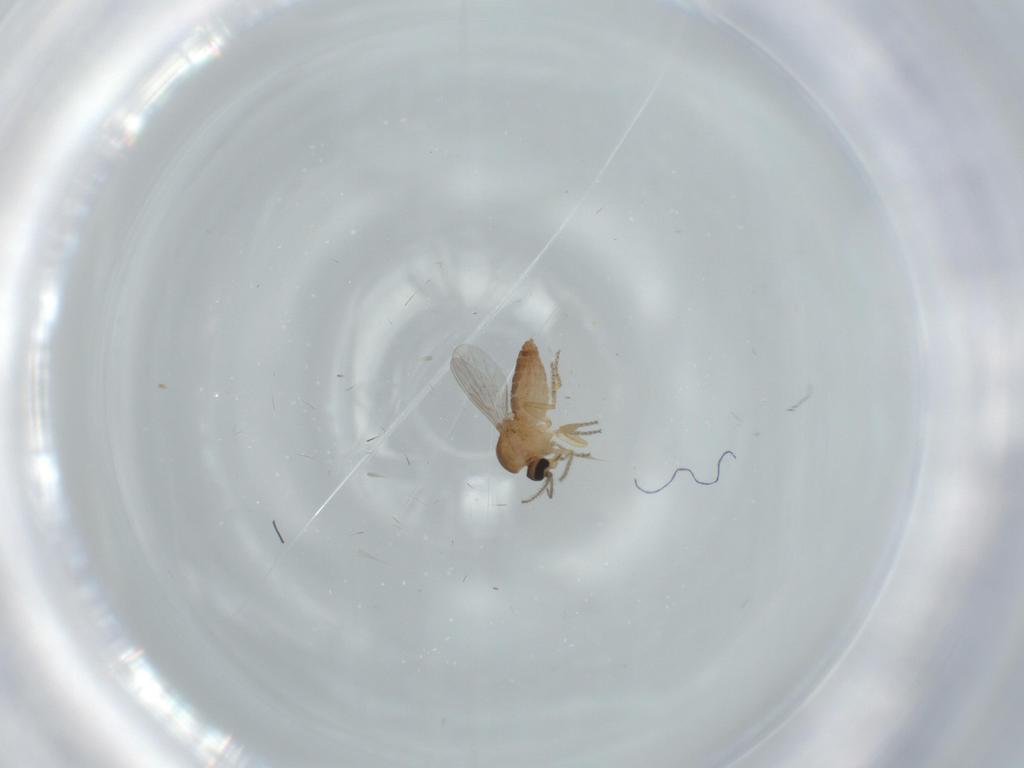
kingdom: Animalia
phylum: Arthropoda
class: Insecta
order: Diptera
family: Ceratopogonidae
